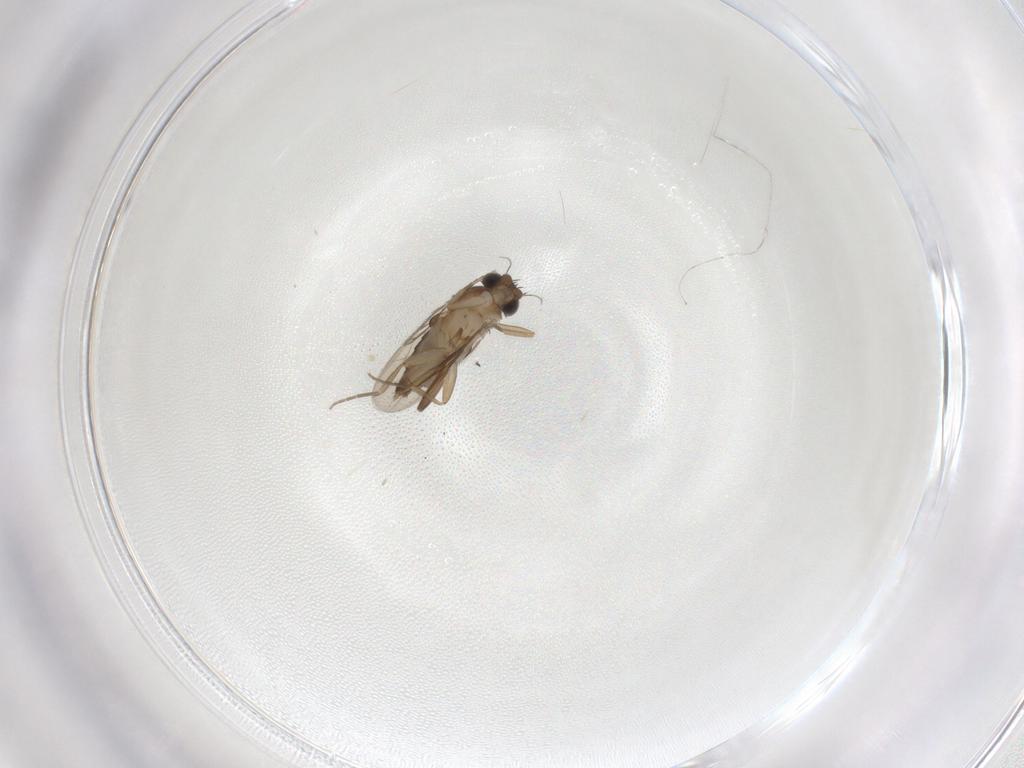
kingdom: Animalia
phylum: Arthropoda
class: Insecta
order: Diptera
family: Phoridae
